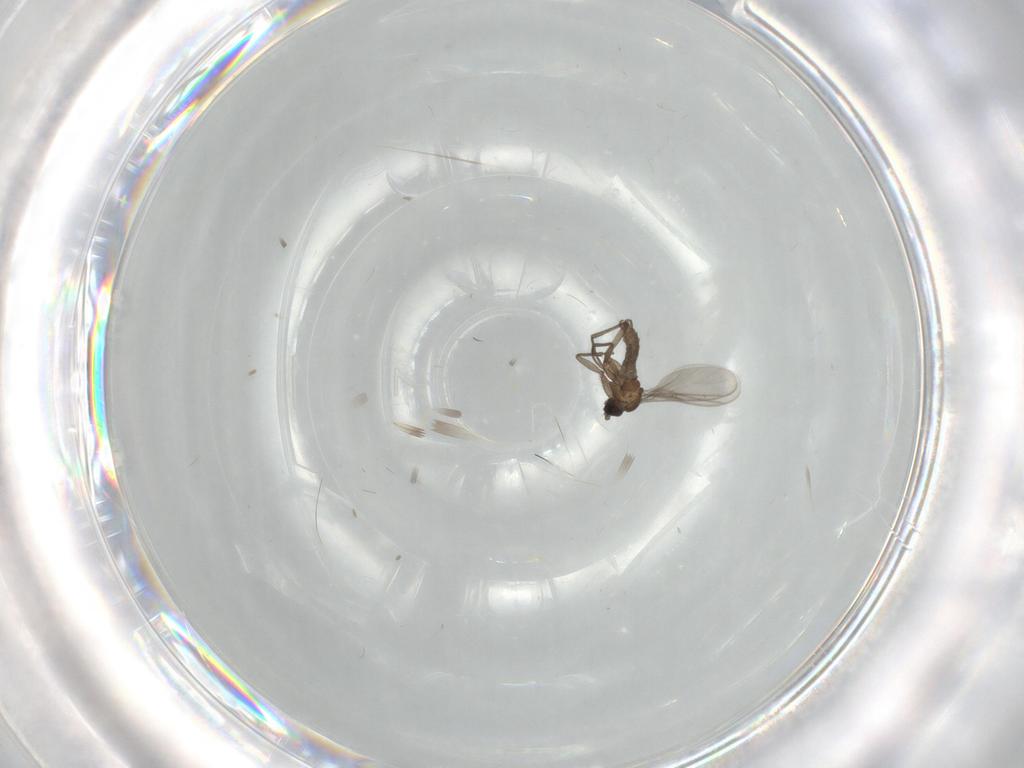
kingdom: Animalia
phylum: Arthropoda
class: Insecta
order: Diptera
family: Sciaridae
